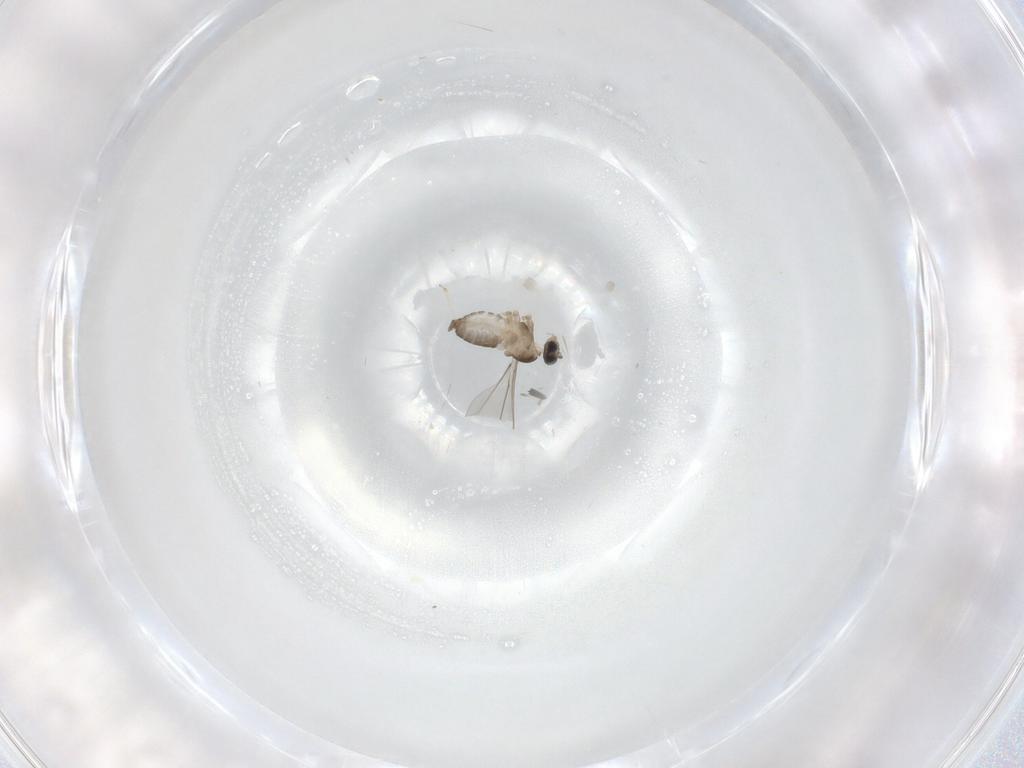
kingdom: Animalia
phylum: Arthropoda
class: Insecta
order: Diptera
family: Cecidomyiidae
